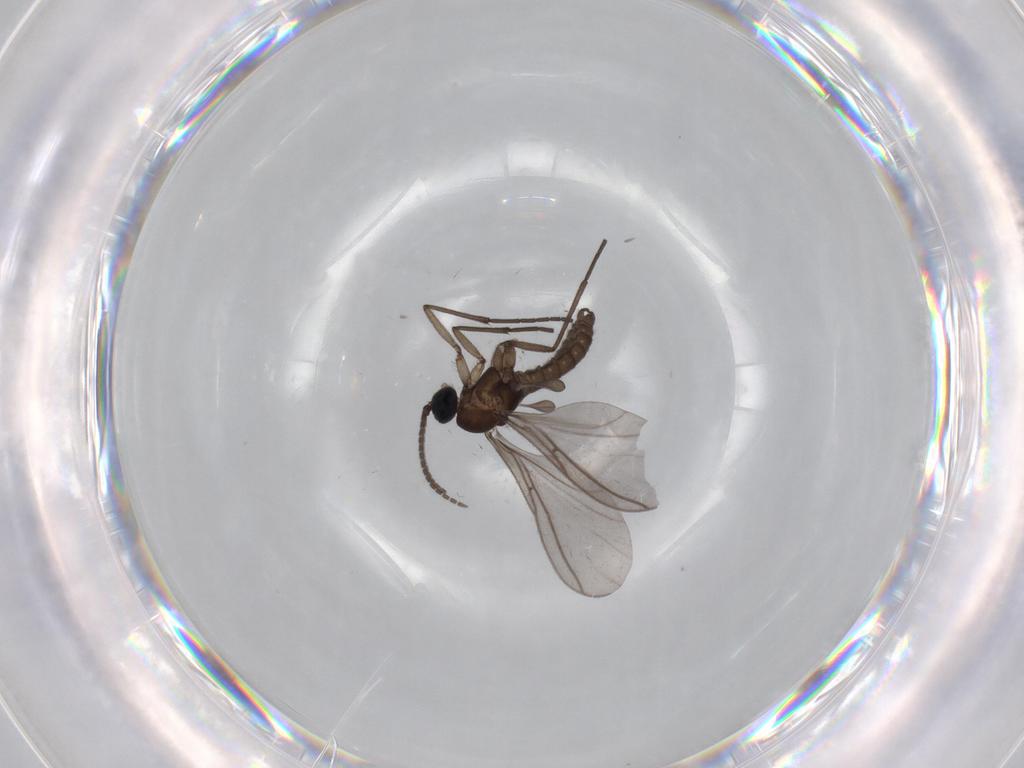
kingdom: Animalia
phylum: Arthropoda
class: Insecta
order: Diptera
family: Sciaridae
